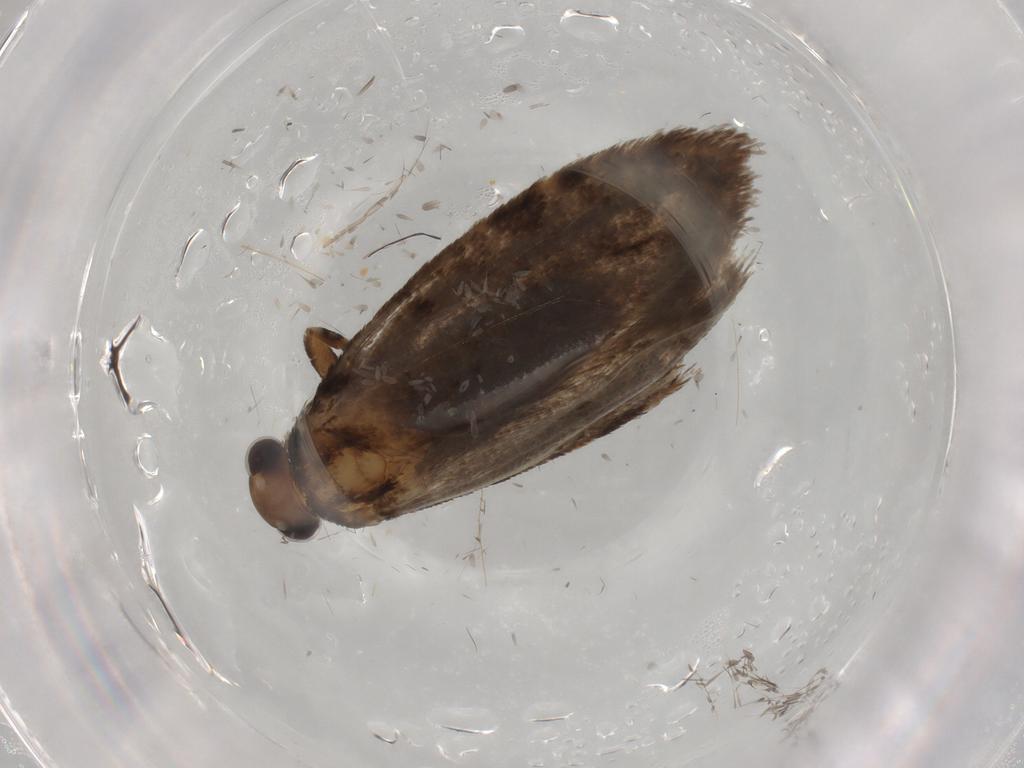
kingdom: Animalia
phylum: Arthropoda
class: Insecta
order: Lepidoptera
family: Tineidae
